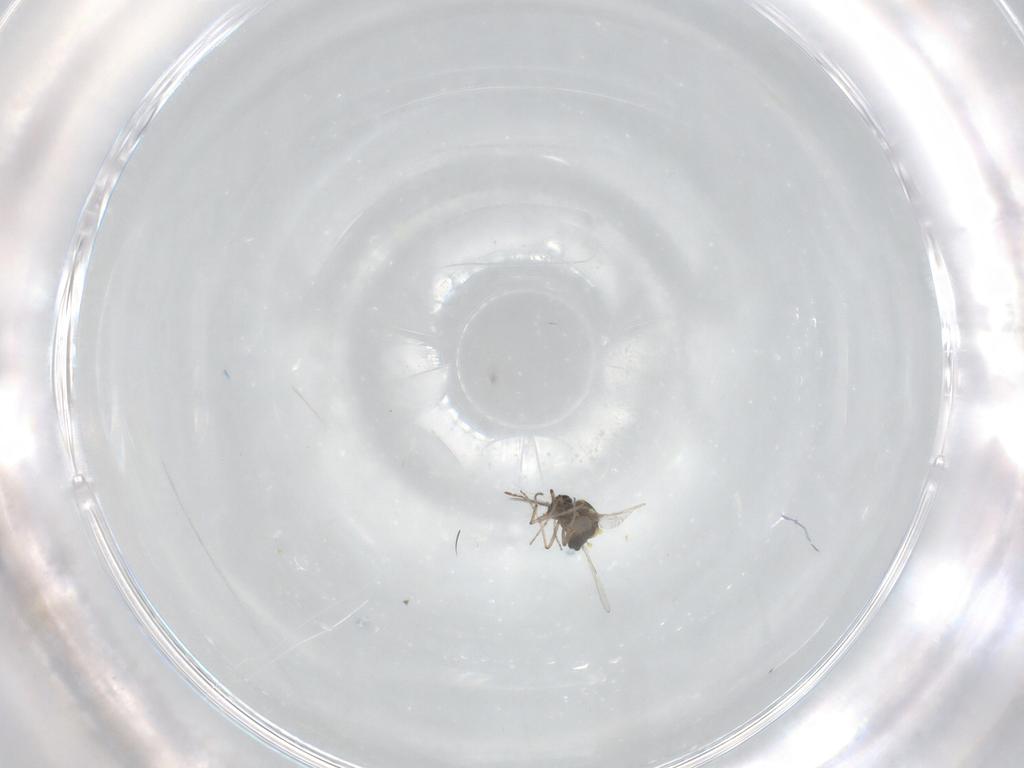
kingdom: Animalia
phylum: Arthropoda
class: Insecta
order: Diptera
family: Ceratopogonidae
